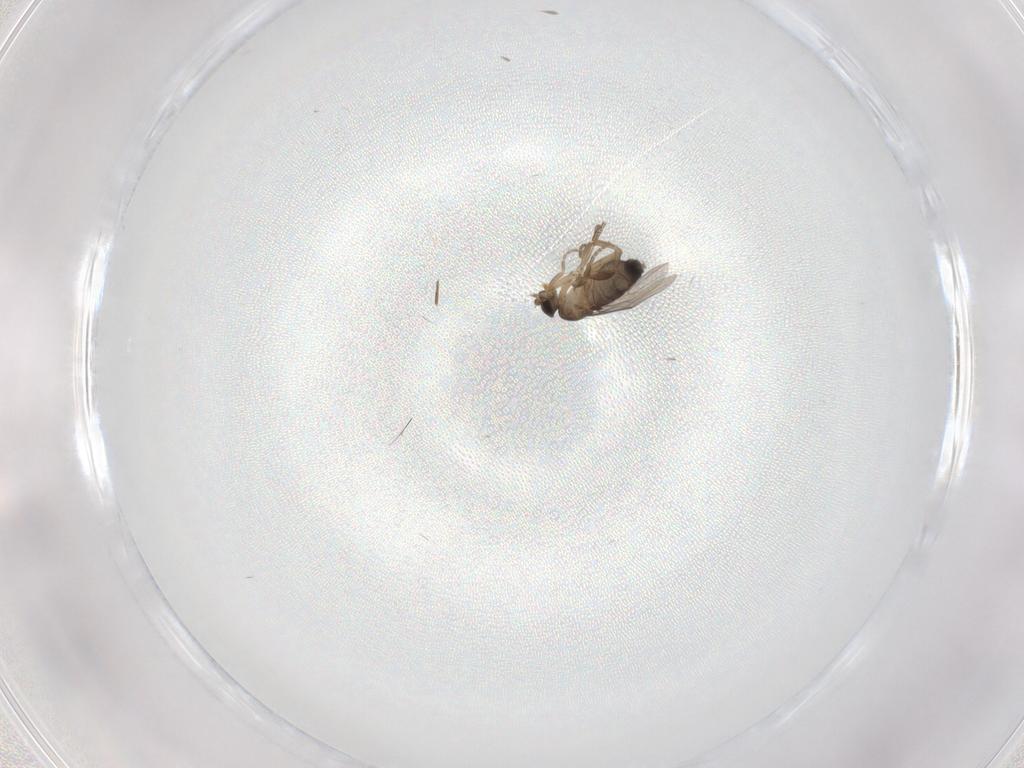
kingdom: Animalia
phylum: Arthropoda
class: Insecta
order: Diptera
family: Phoridae
